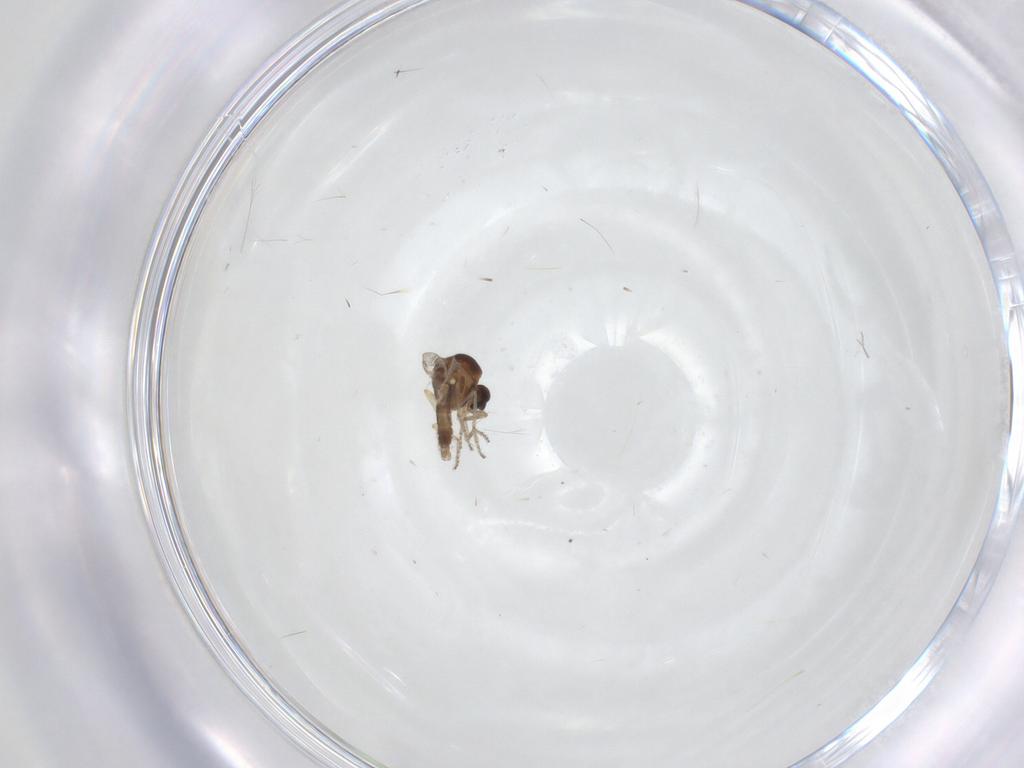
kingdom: Animalia
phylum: Arthropoda
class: Insecta
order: Diptera
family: Ceratopogonidae
